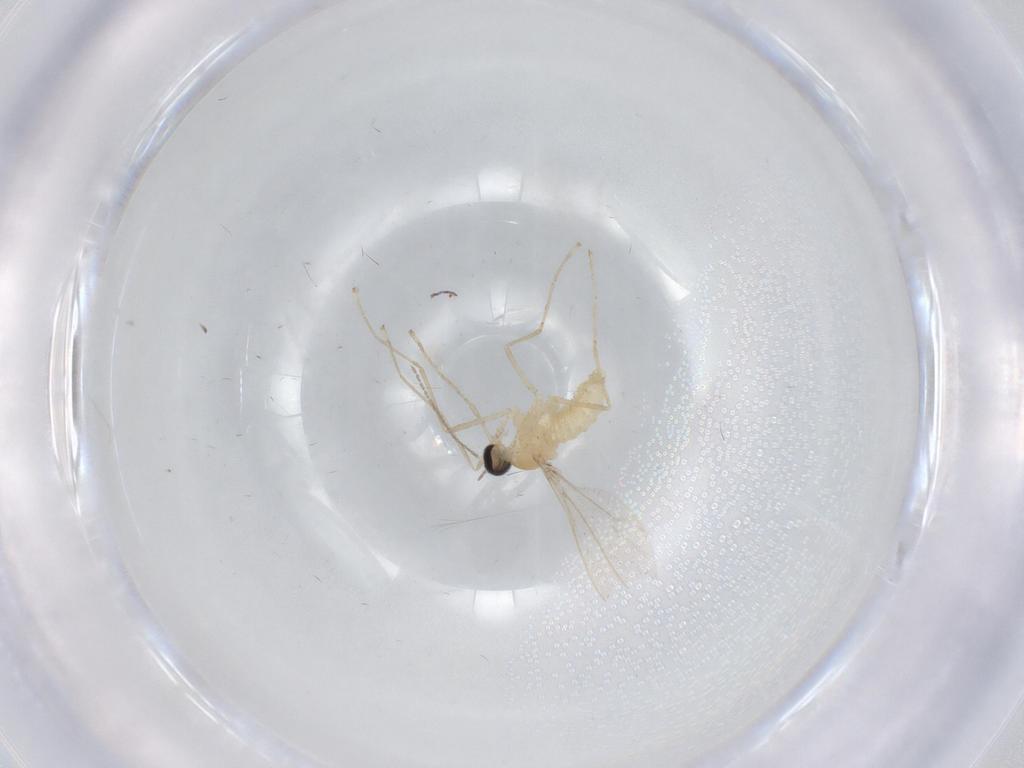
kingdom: Animalia
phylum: Arthropoda
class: Insecta
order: Diptera
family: Cecidomyiidae
